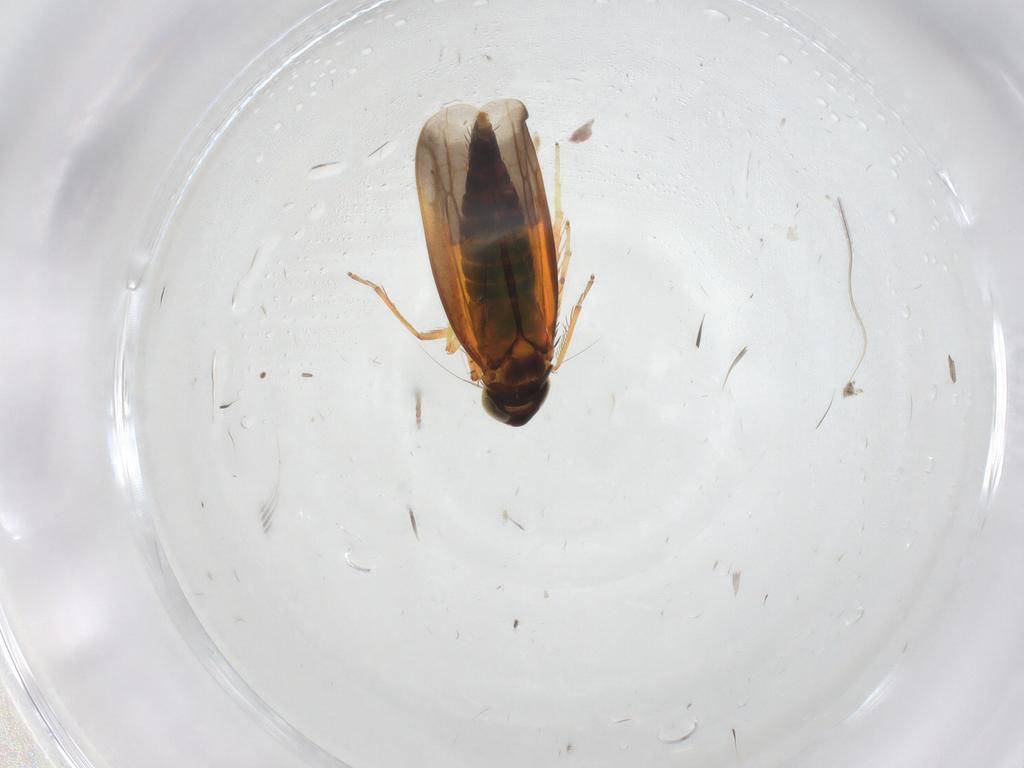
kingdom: Animalia
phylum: Arthropoda
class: Insecta
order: Hemiptera
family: Cicadellidae
